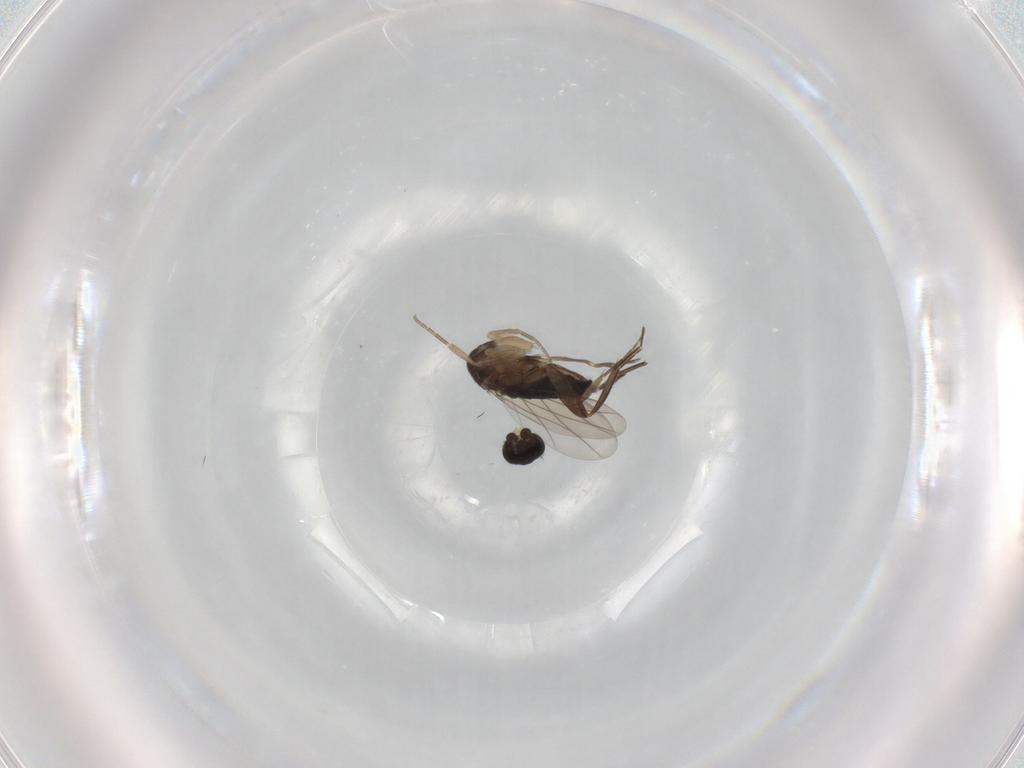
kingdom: Animalia
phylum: Arthropoda
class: Insecta
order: Diptera
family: Phoridae
